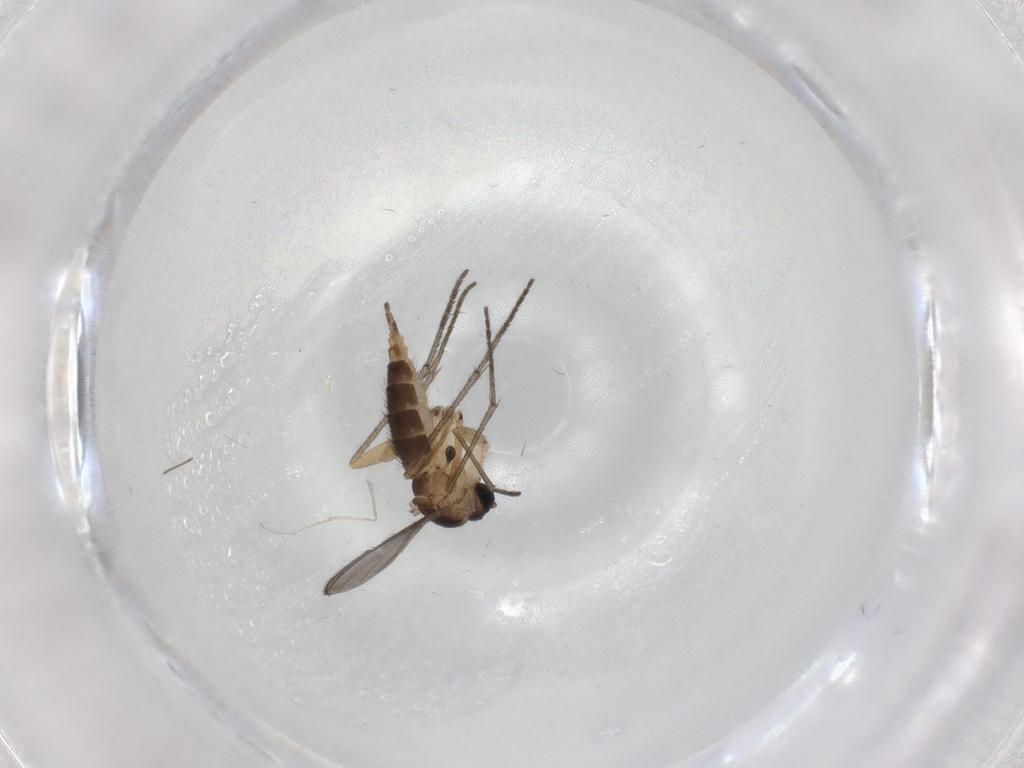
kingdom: Animalia
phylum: Arthropoda
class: Insecta
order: Diptera
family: Sciaridae
